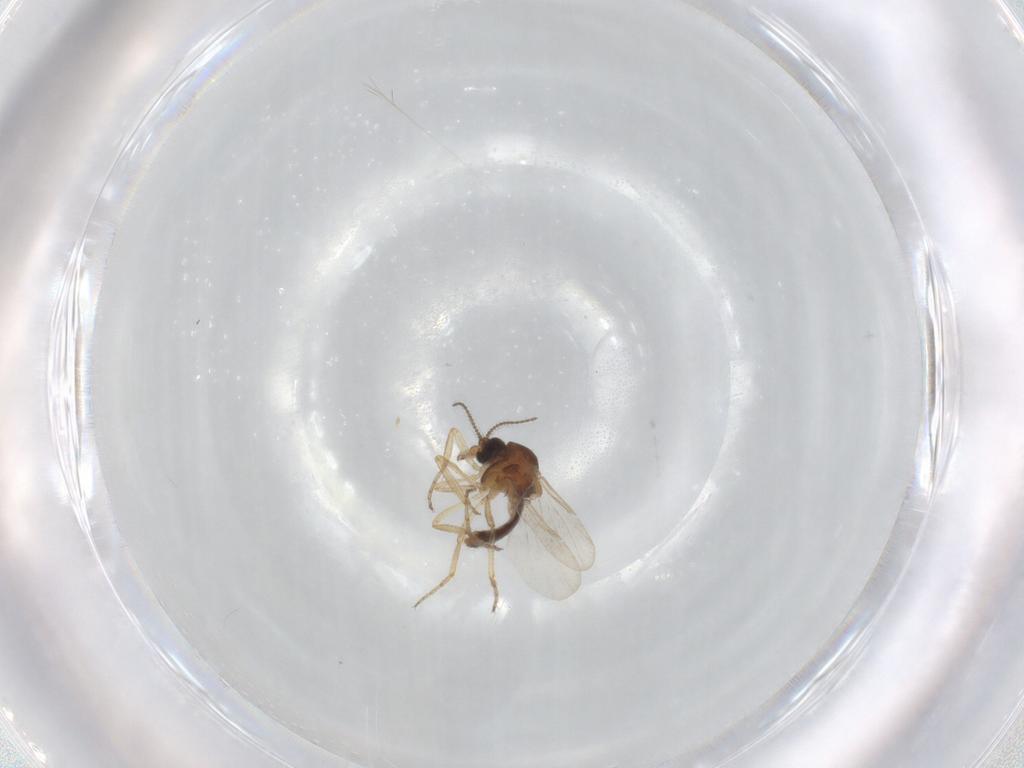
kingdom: Animalia
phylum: Arthropoda
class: Insecta
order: Diptera
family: Ceratopogonidae
